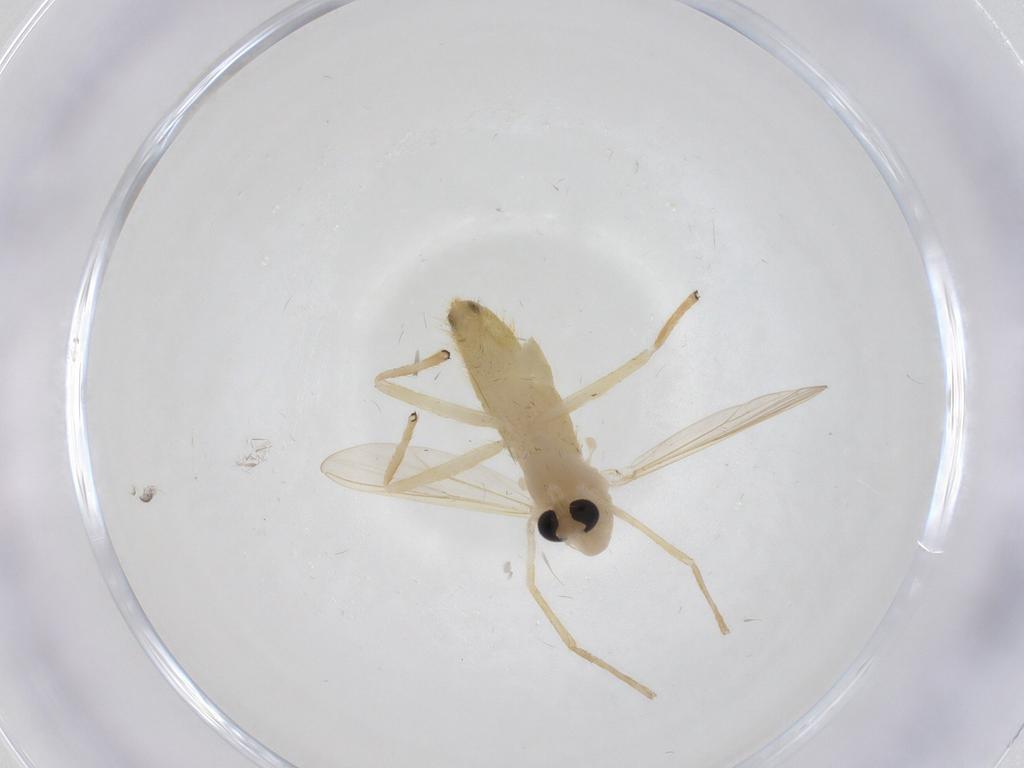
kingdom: Animalia
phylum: Arthropoda
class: Insecta
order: Diptera
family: Chironomidae
